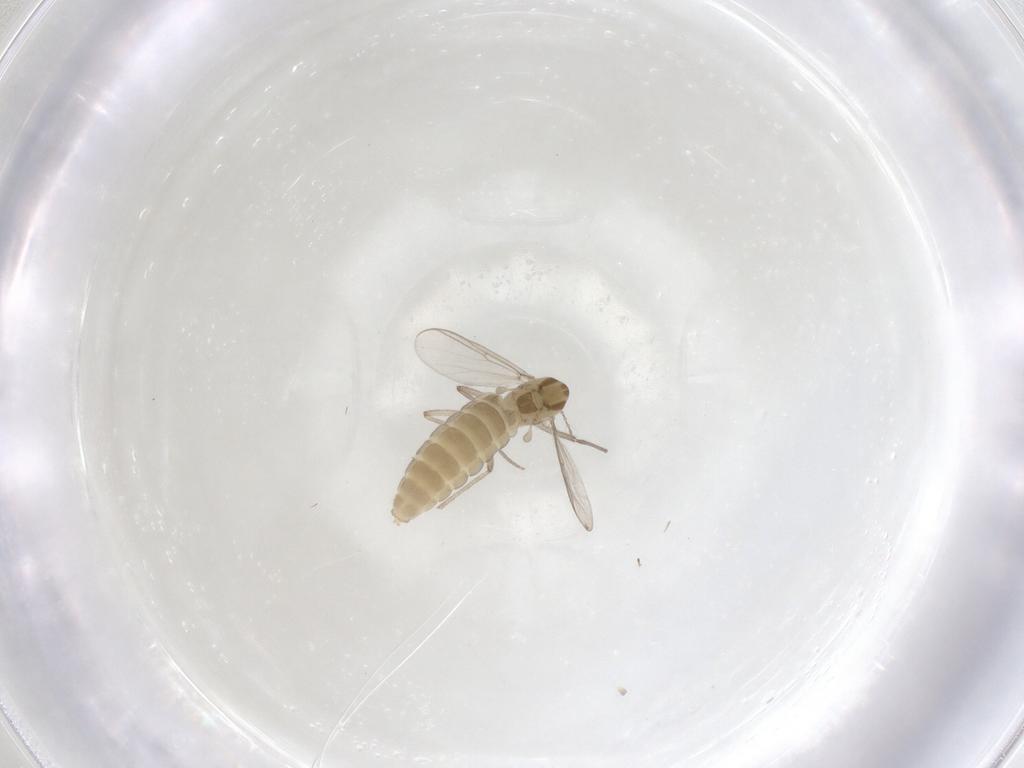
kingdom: Animalia
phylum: Arthropoda
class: Insecta
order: Diptera
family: Chironomidae
